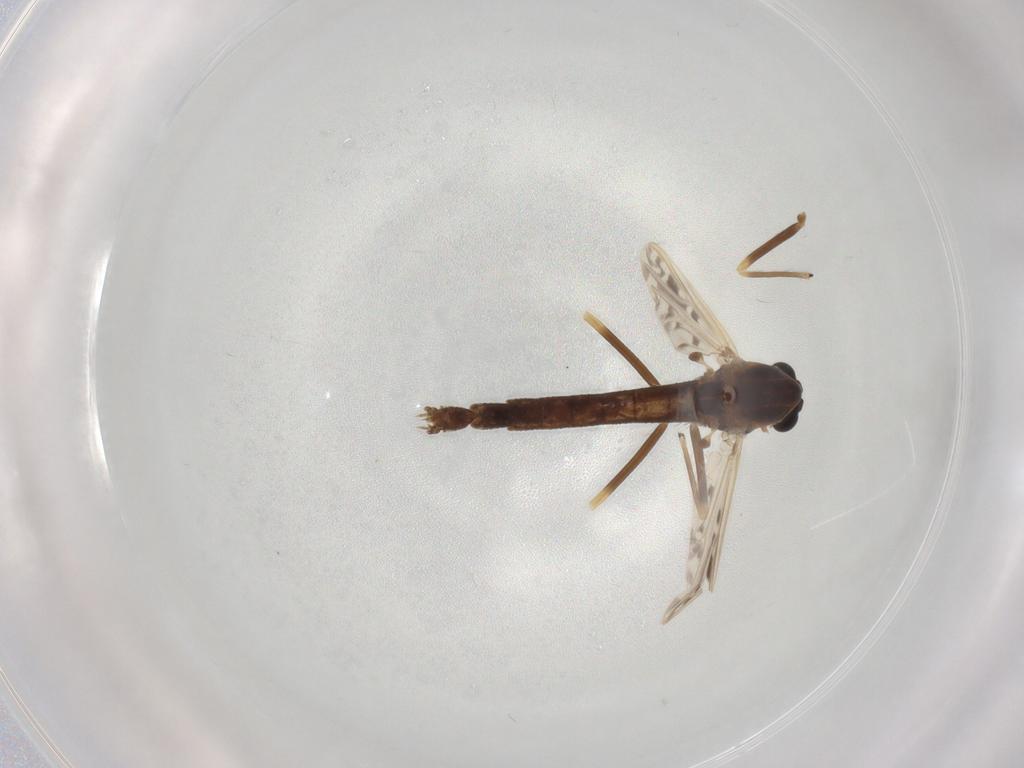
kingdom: Animalia
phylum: Arthropoda
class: Insecta
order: Diptera
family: Chironomidae
